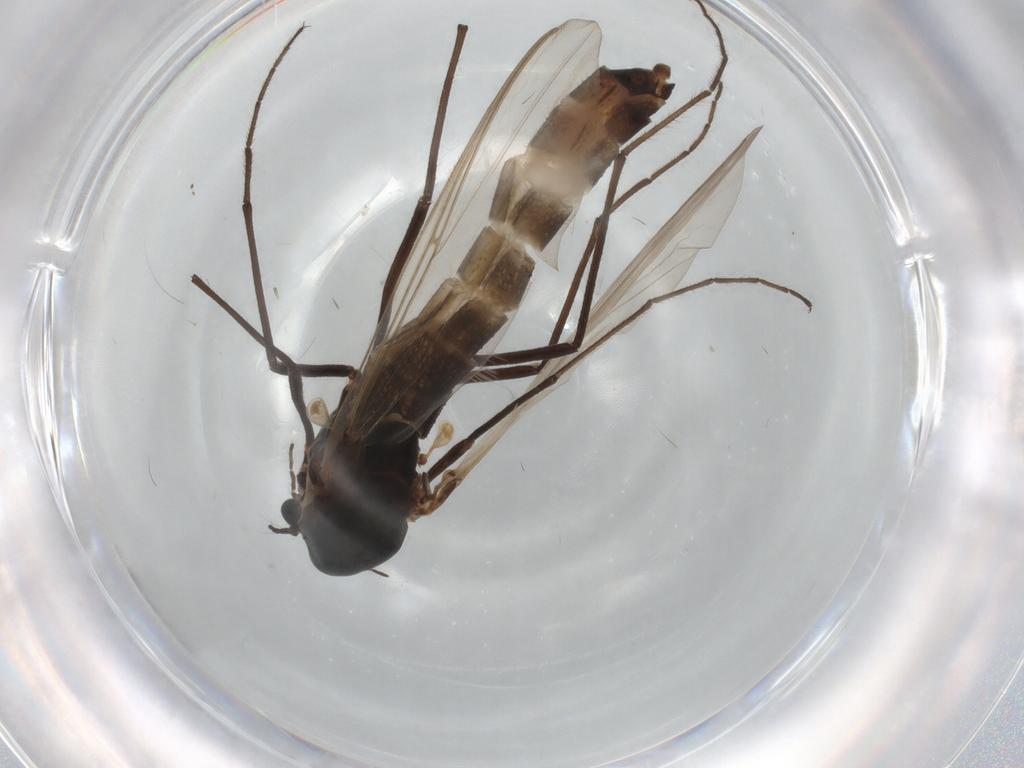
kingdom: Animalia
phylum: Arthropoda
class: Insecta
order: Diptera
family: Chironomidae
